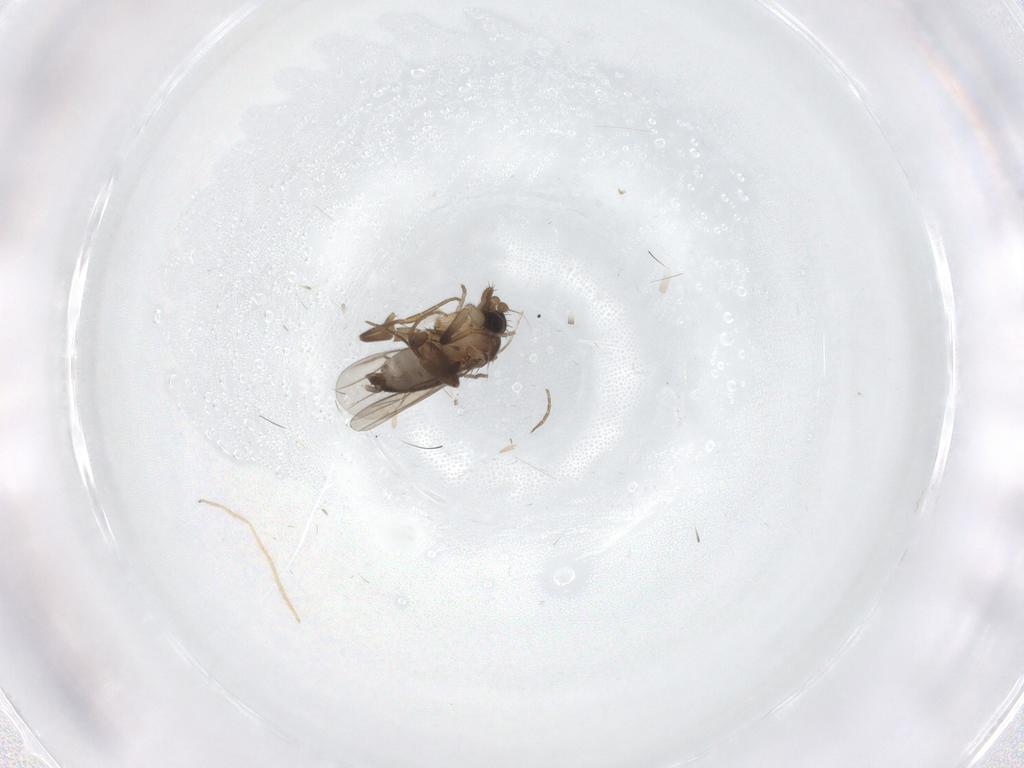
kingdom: Animalia
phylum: Arthropoda
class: Insecta
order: Diptera
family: Phoridae
